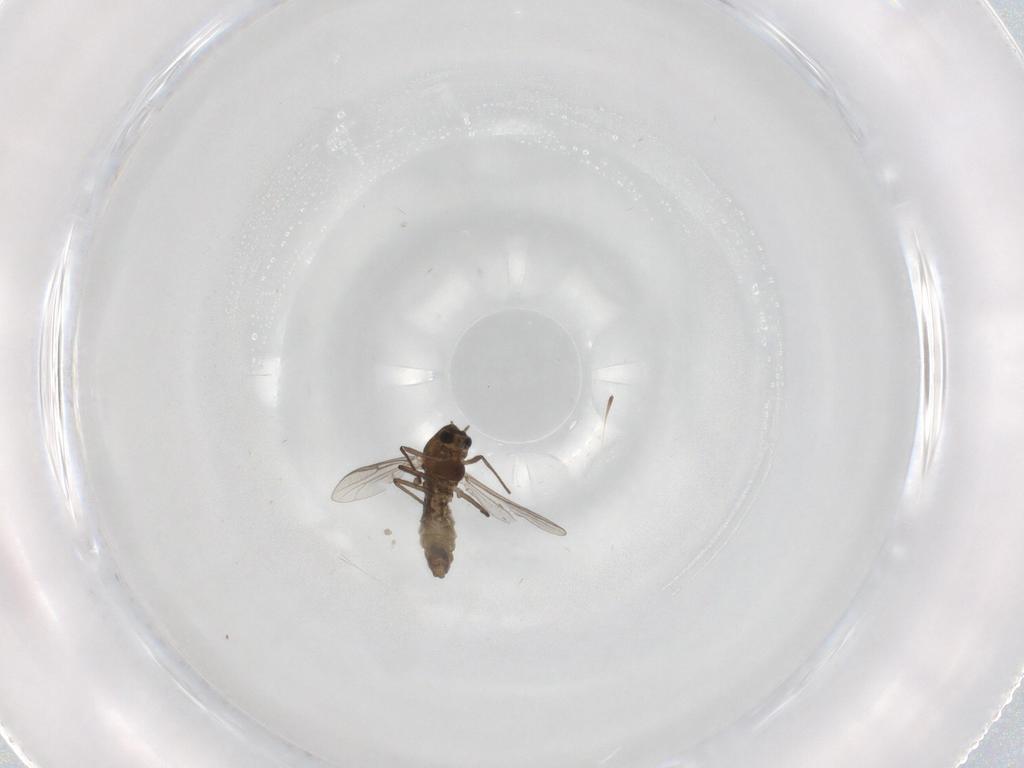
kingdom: Animalia
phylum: Arthropoda
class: Insecta
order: Diptera
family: Chironomidae
